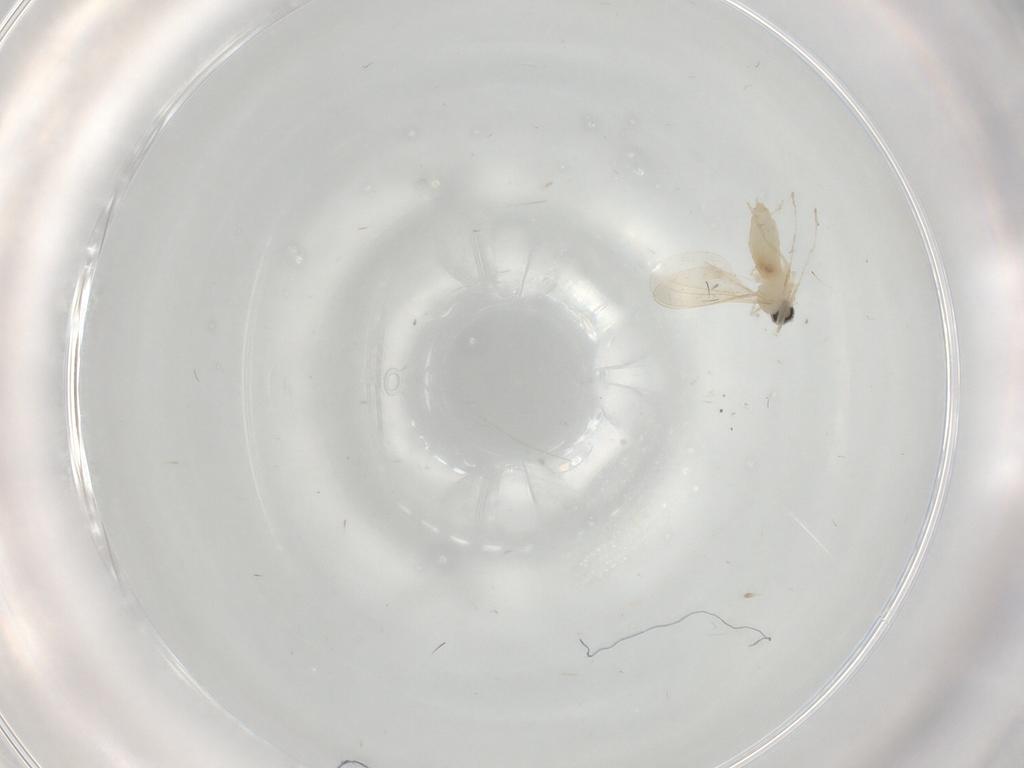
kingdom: Animalia
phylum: Arthropoda
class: Insecta
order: Diptera
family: Cecidomyiidae
